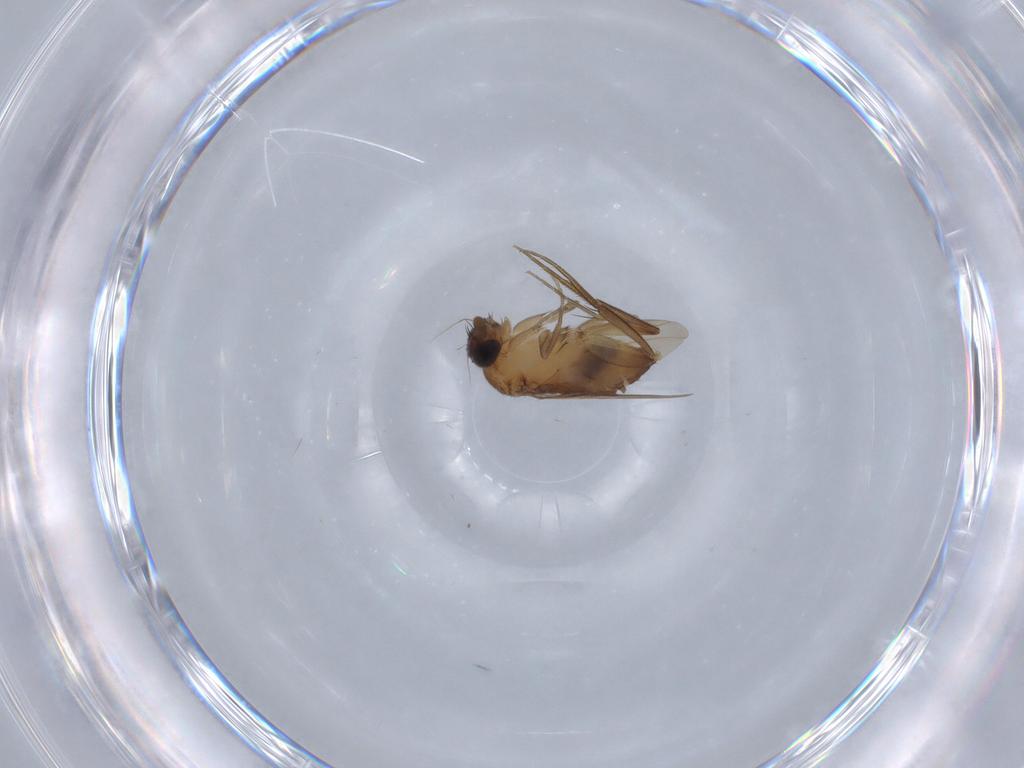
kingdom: Animalia
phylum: Arthropoda
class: Insecta
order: Diptera
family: Phoridae
